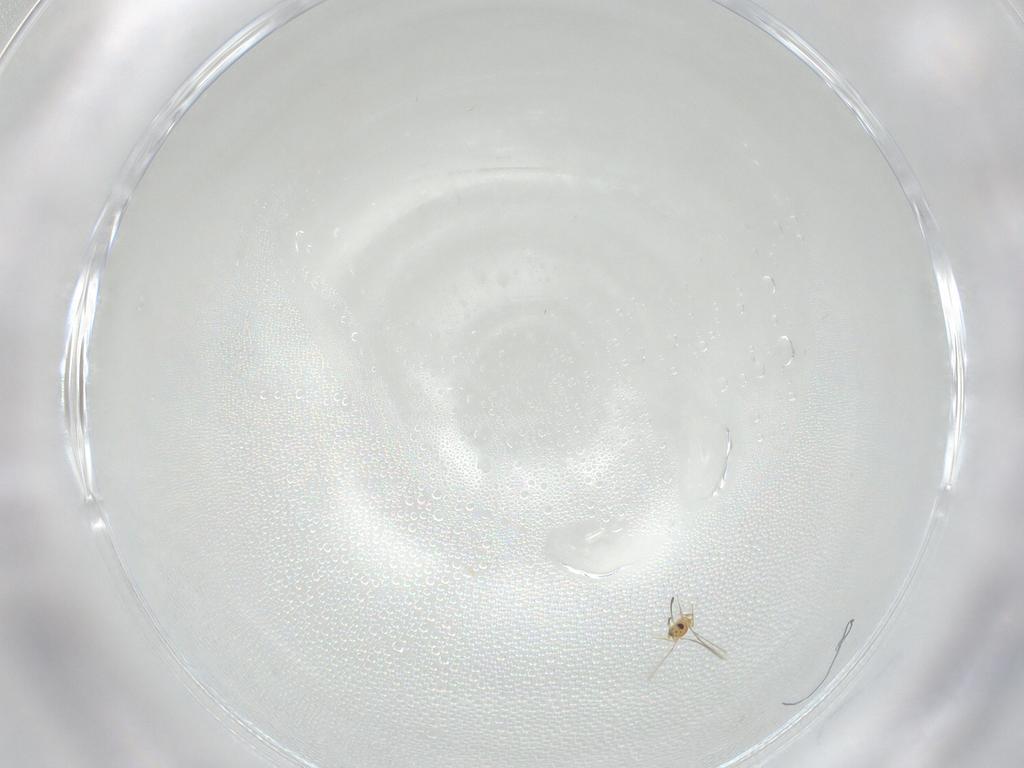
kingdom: Animalia
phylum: Arthropoda
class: Insecta
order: Hymenoptera
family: Mymaridae
